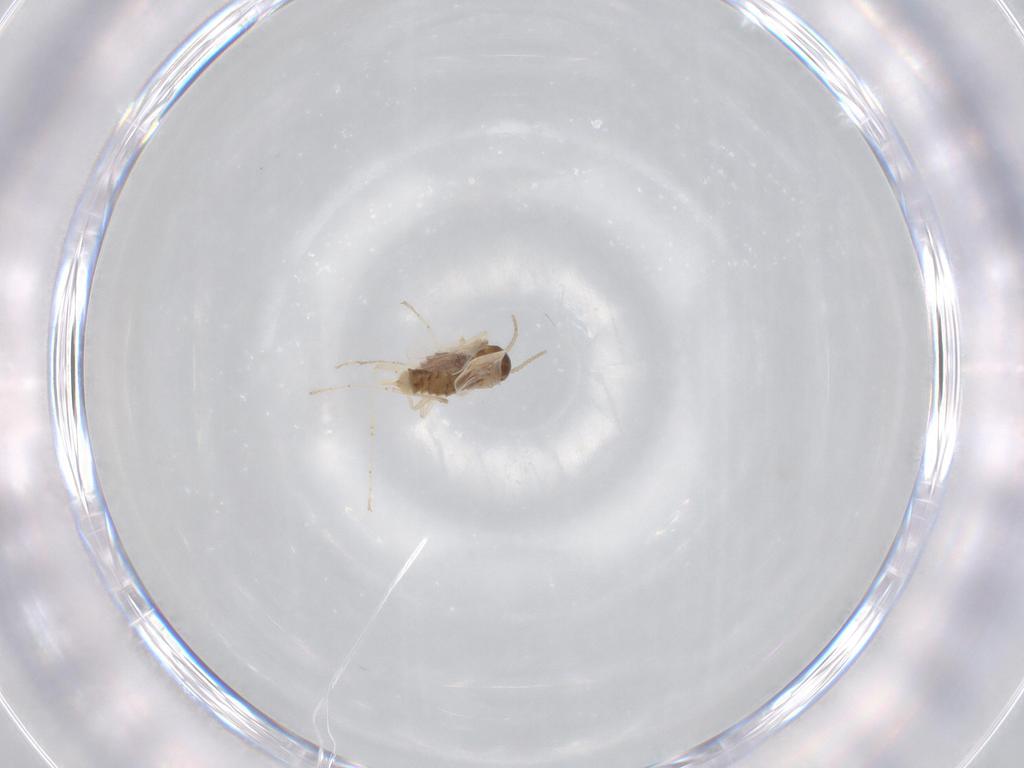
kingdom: Animalia
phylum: Arthropoda
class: Insecta
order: Diptera
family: Cecidomyiidae
